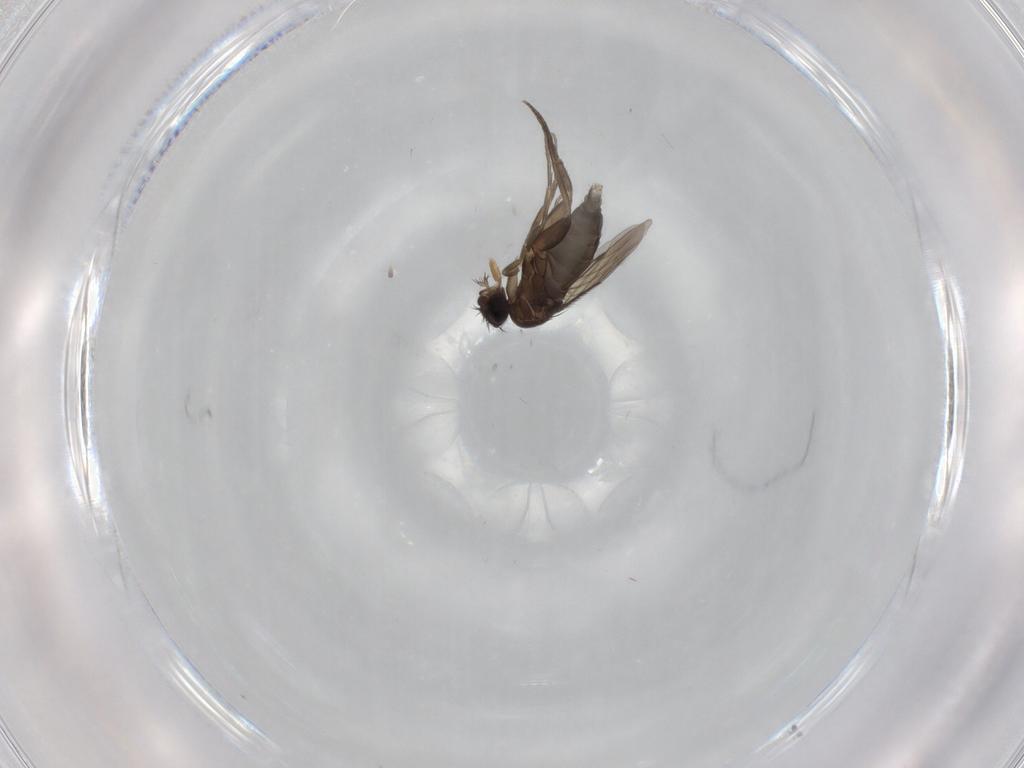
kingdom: Animalia
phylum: Arthropoda
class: Insecta
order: Diptera
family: Phoridae
